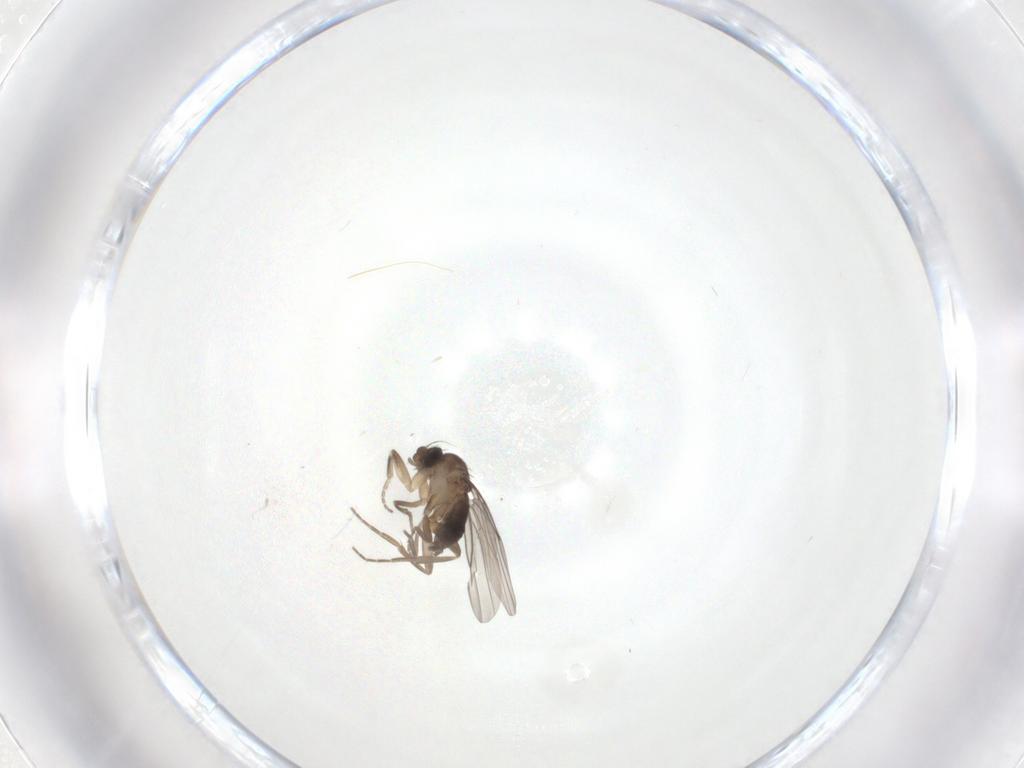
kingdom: Animalia
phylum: Arthropoda
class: Insecta
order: Diptera
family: Phoridae
